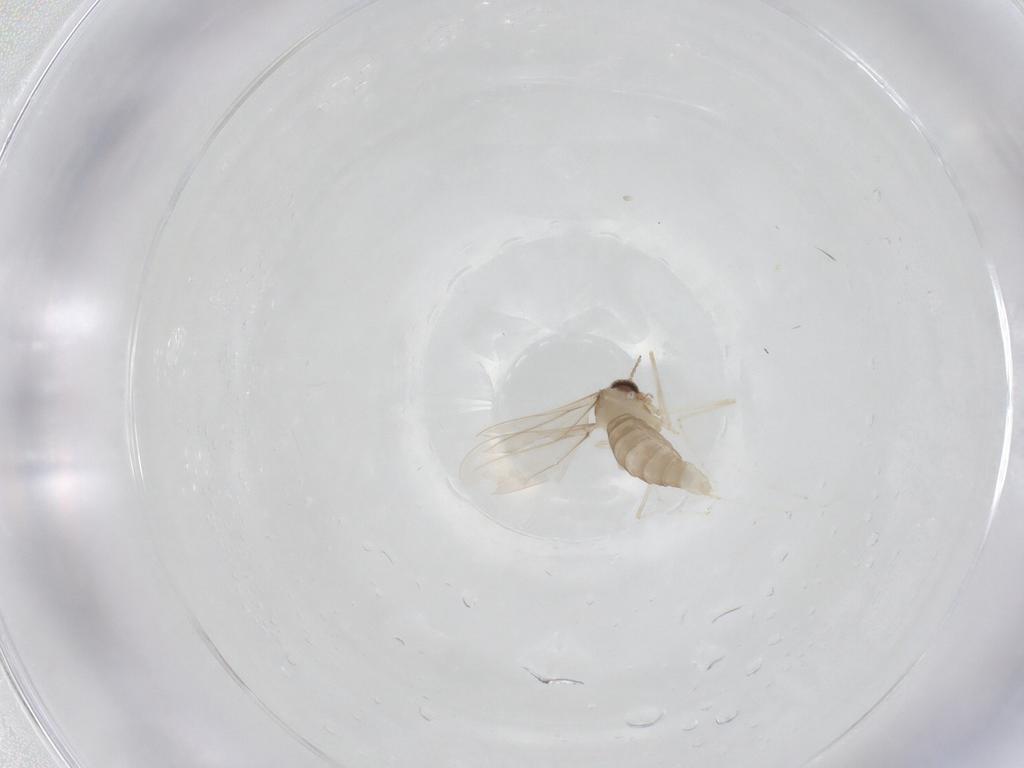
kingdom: Animalia
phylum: Arthropoda
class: Insecta
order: Diptera
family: Cecidomyiidae
